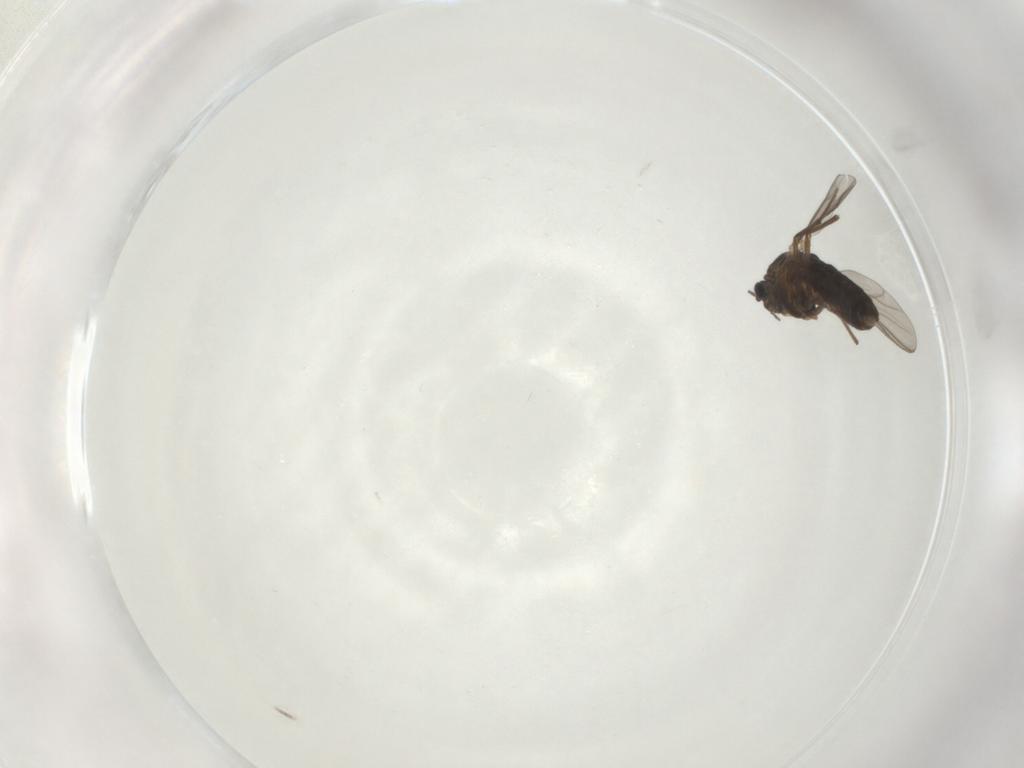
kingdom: Animalia
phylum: Arthropoda
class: Insecta
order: Diptera
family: Chironomidae
